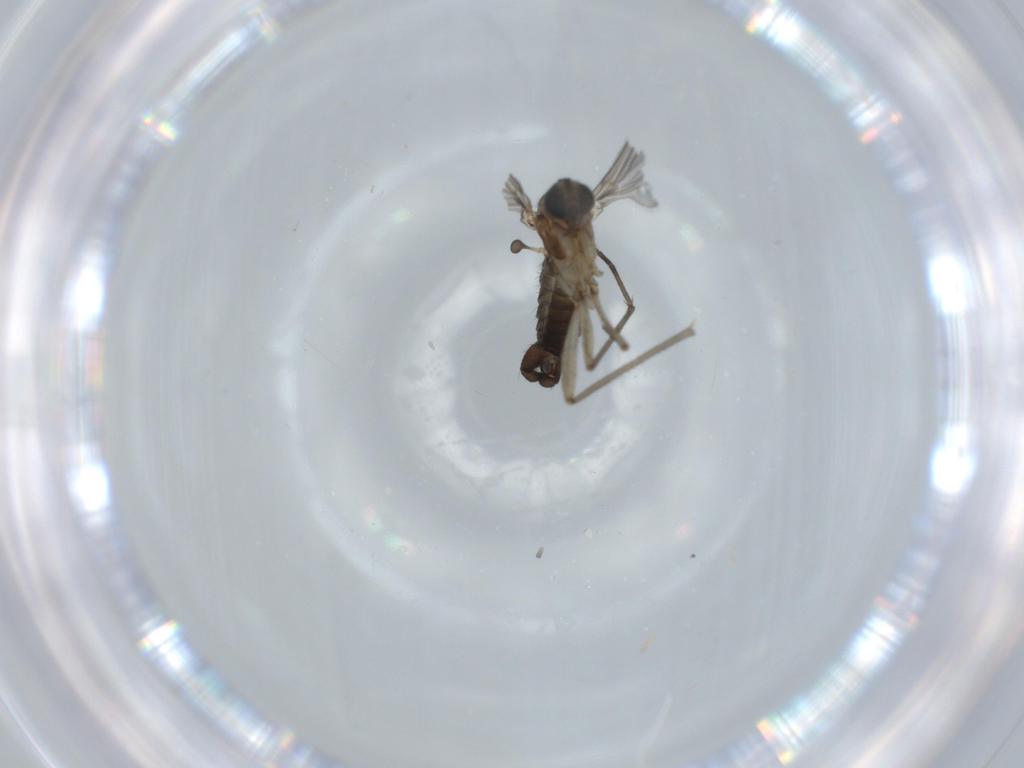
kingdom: Animalia
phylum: Arthropoda
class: Insecta
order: Diptera
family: Sciaridae
